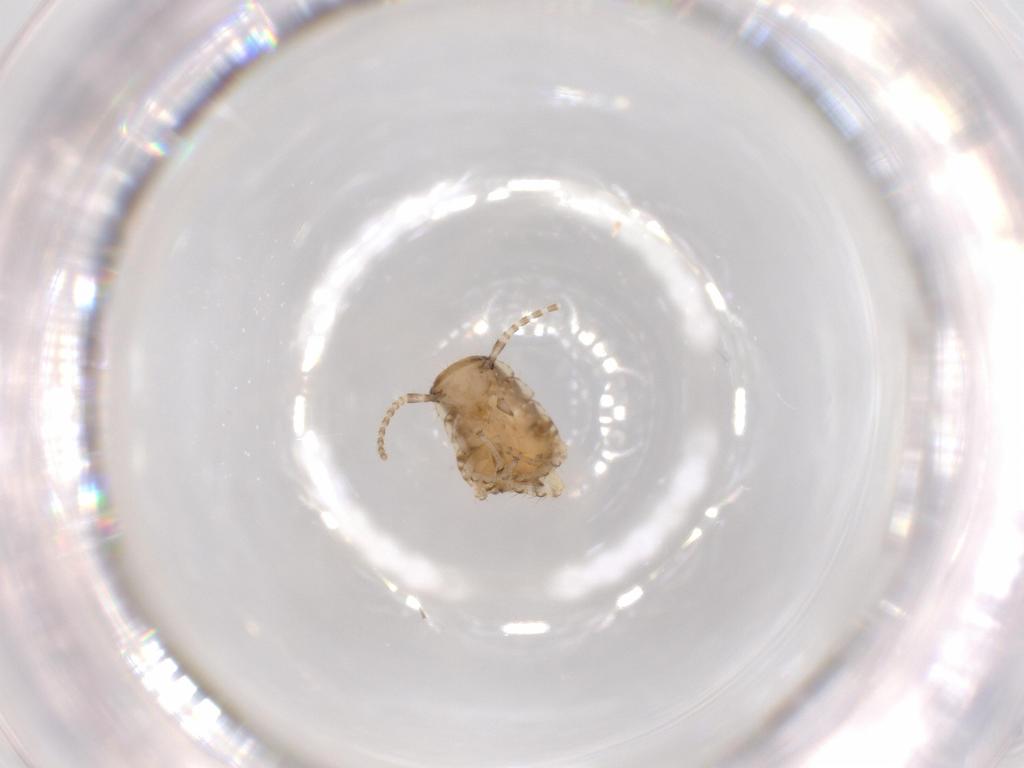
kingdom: Animalia
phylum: Arthropoda
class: Insecta
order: Blattodea
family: Ectobiidae
